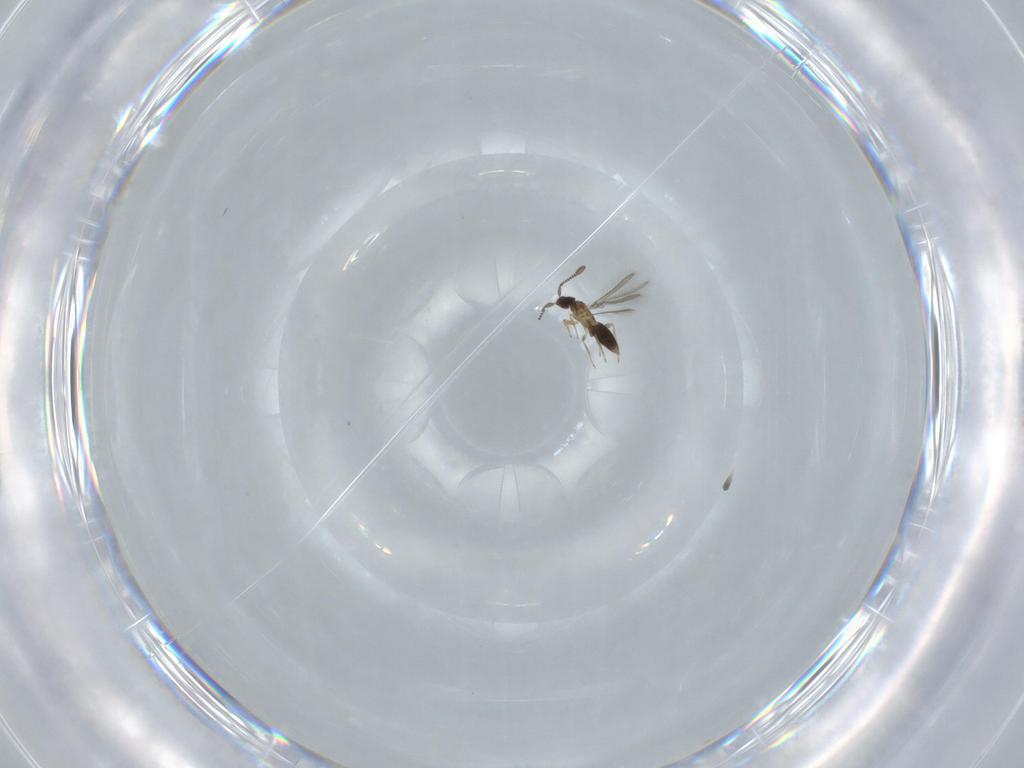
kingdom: Animalia
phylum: Arthropoda
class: Insecta
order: Hymenoptera
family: Mymaridae
